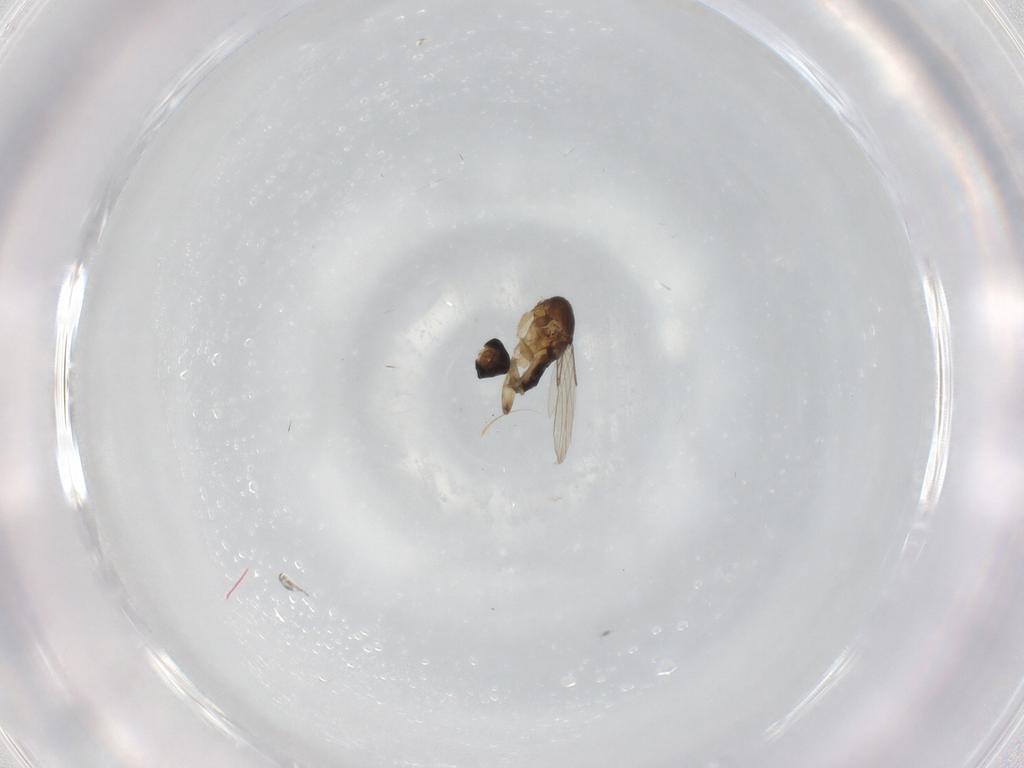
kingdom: Animalia
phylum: Arthropoda
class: Insecta
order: Diptera
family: Phoridae
